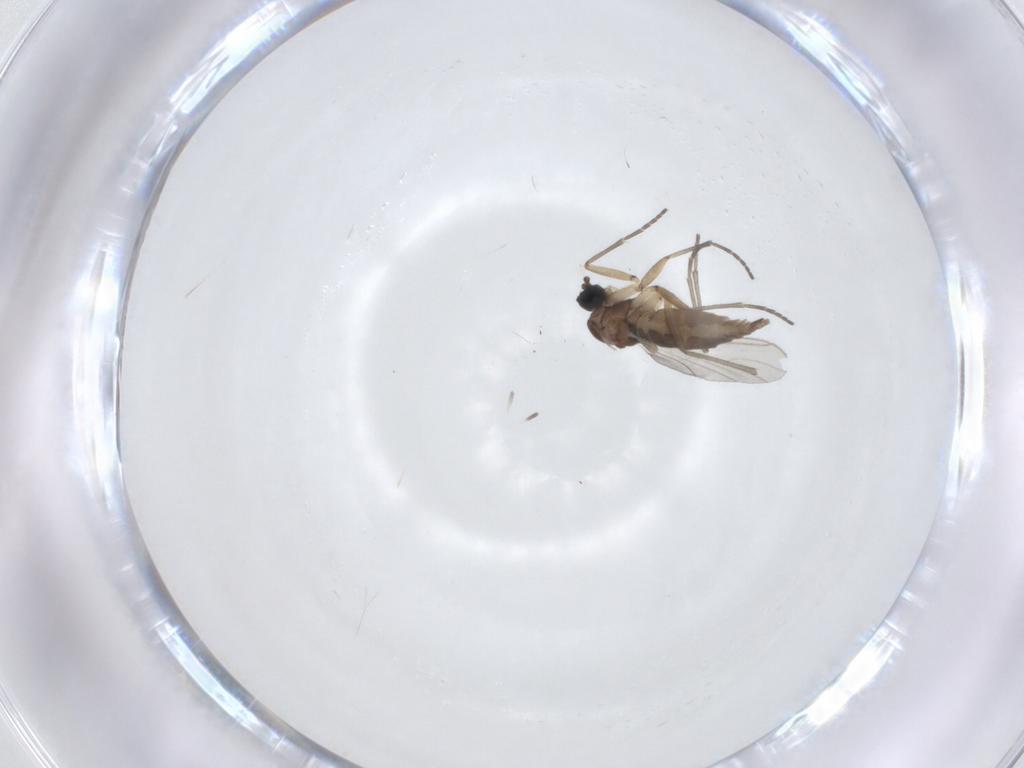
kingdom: Animalia
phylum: Arthropoda
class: Insecta
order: Diptera
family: Sciaridae
